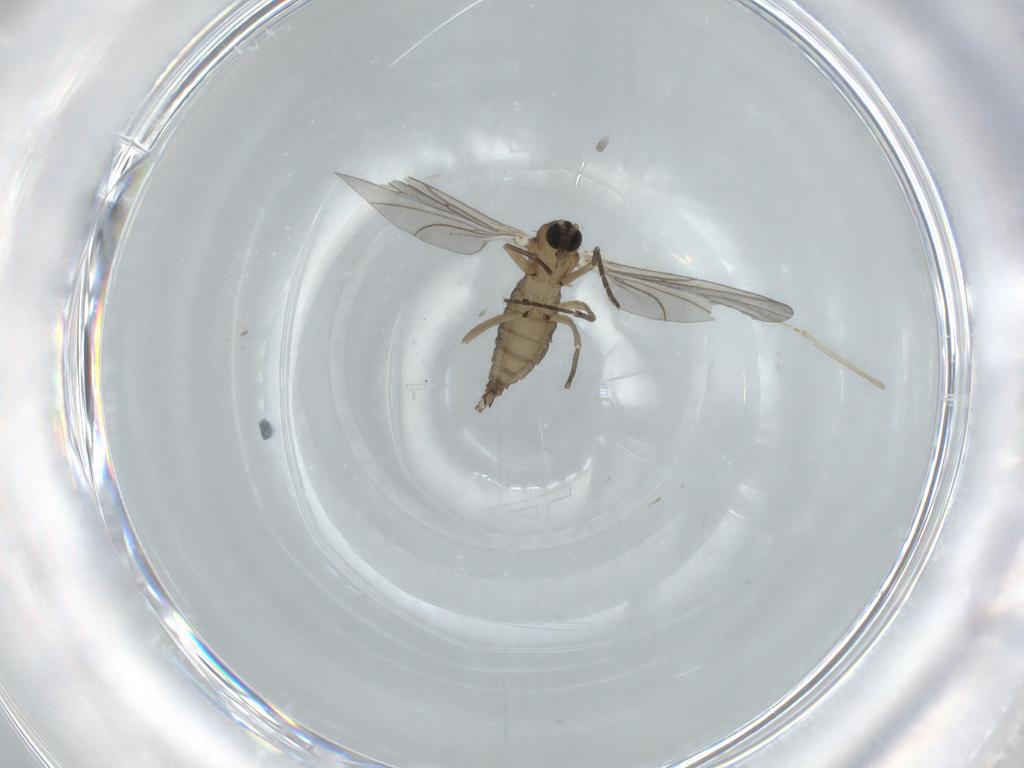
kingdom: Animalia
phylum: Arthropoda
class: Insecta
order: Diptera
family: Sciaridae
